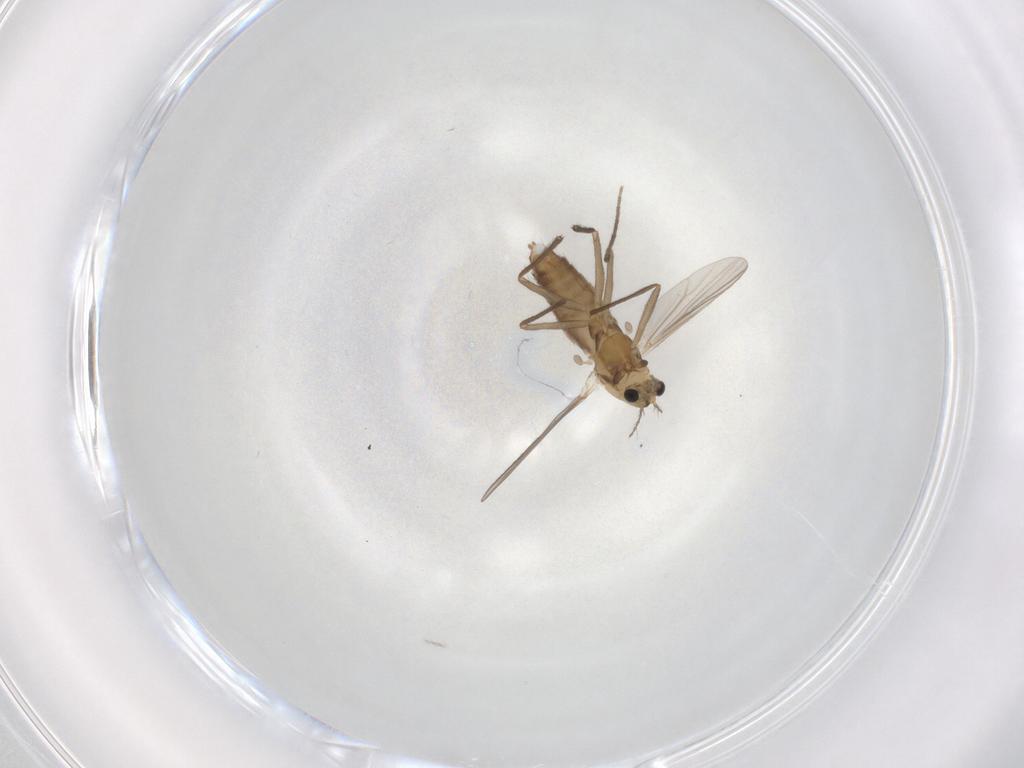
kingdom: Animalia
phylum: Arthropoda
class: Insecta
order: Diptera
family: Chironomidae
